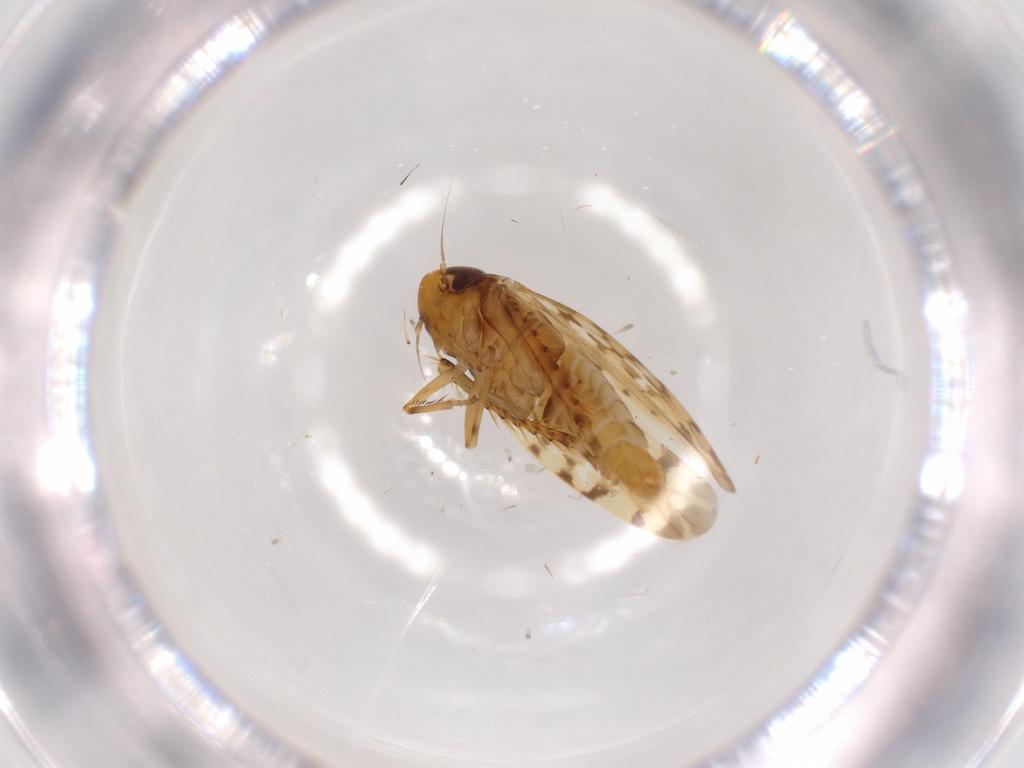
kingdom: Animalia
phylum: Arthropoda
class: Insecta
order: Hemiptera
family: Cicadellidae
